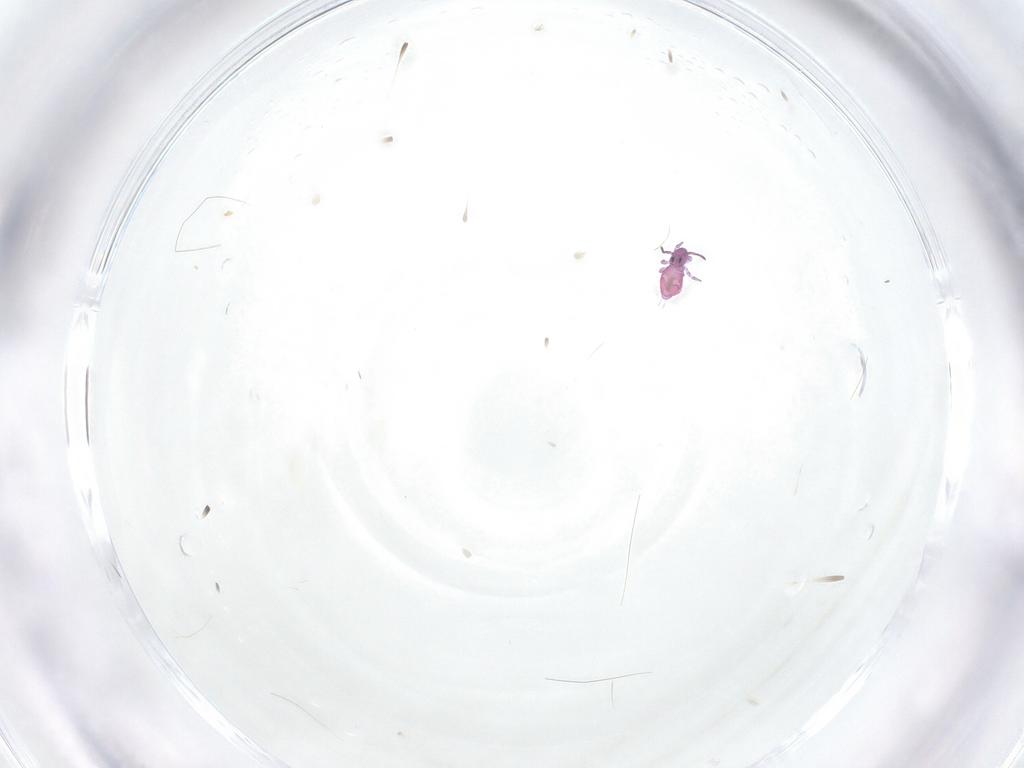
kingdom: Animalia
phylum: Arthropoda
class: Collembola
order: Symphypleona
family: Sminthuridae
